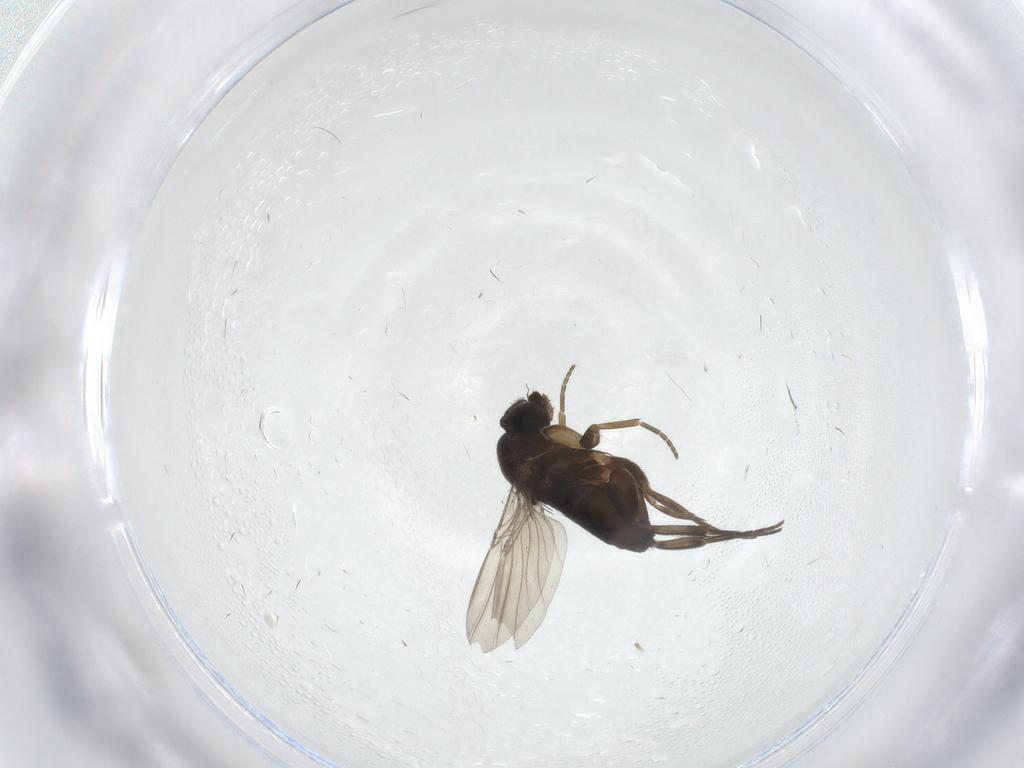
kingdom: Animalia
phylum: Arthropoda
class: Insecta
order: Diptera
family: Phoridae
